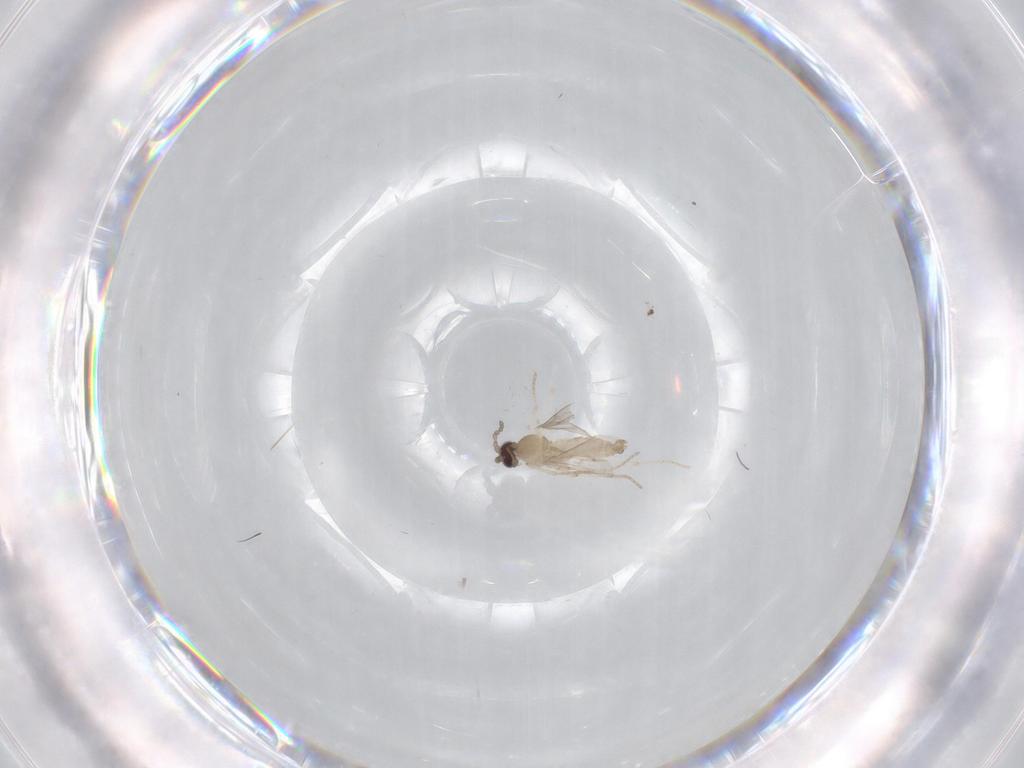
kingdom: Animalia
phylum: Arthropoda
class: Insecta
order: Diptera
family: Cecidomyiidae
